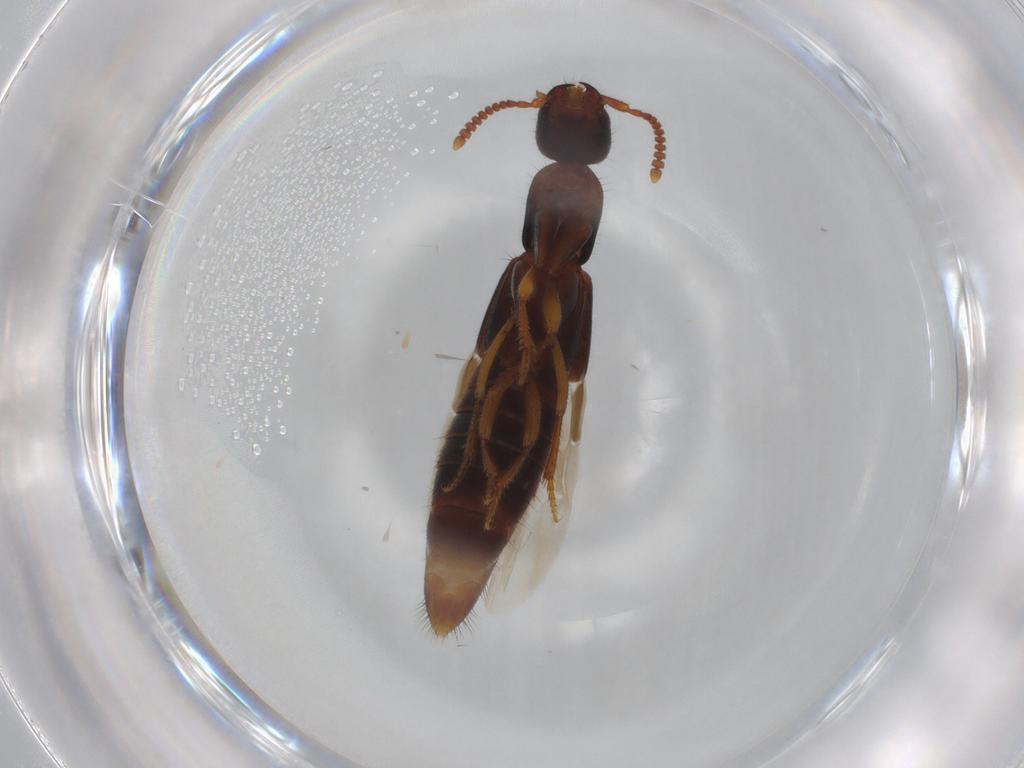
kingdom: Animalia
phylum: Arthropoda
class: Insecta
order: Coleoptera
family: Staphylinidae
